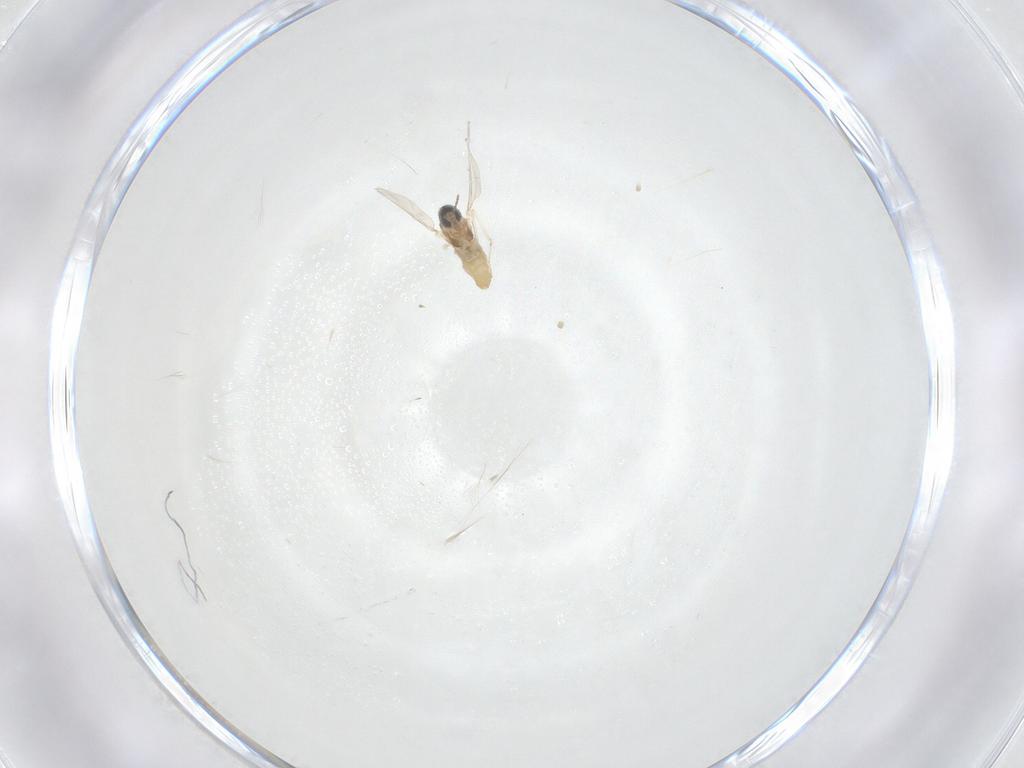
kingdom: Animalia
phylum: Arthropoda
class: Insecta
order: Diptera
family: Cecidomyiidae
